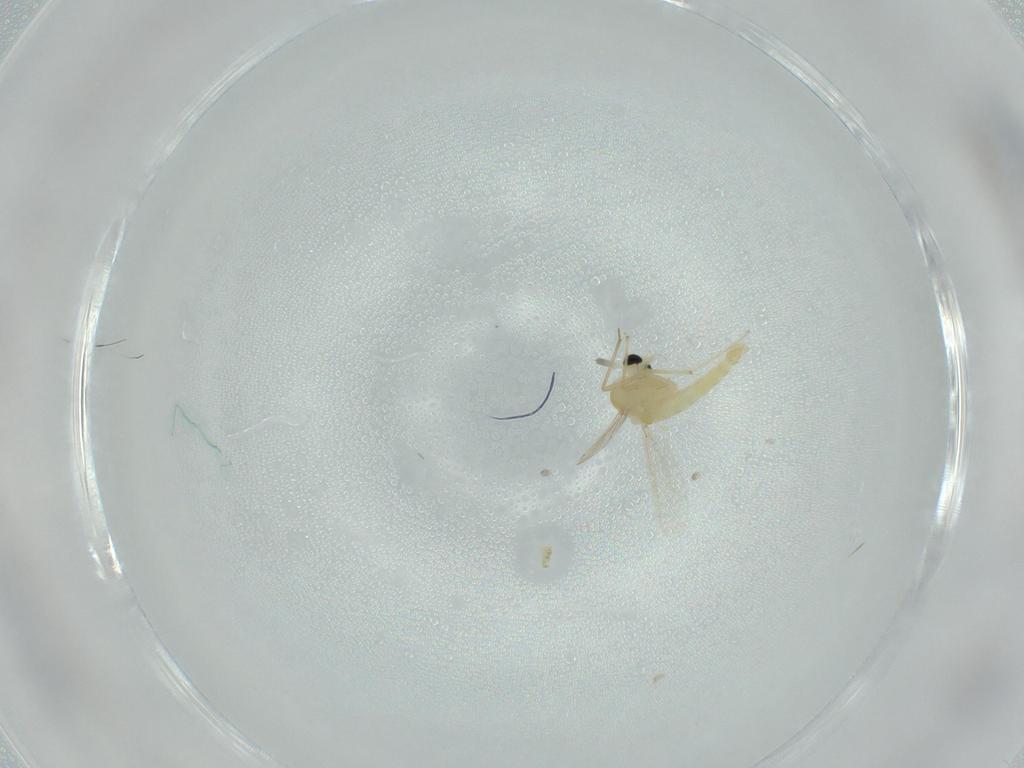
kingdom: Animalia
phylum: Arthropoda
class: Insecta
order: Diptera
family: Chironomidae
